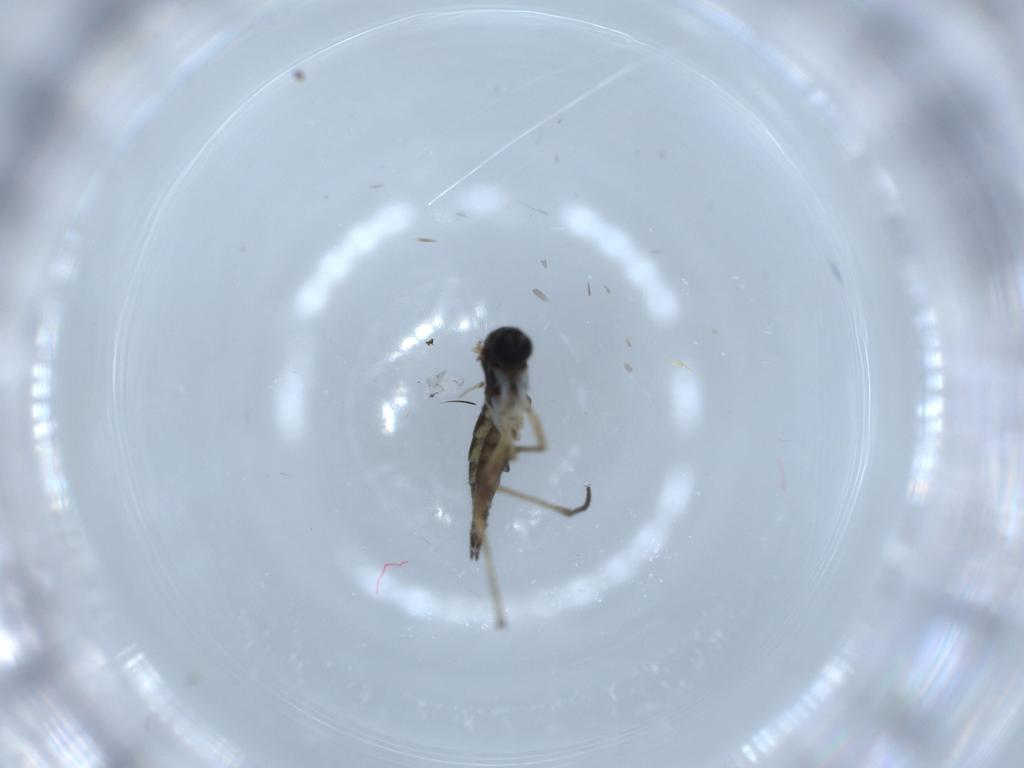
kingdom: Animalia
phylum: Arthropoda
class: Insecta
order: Diptera
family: Sciaridae
